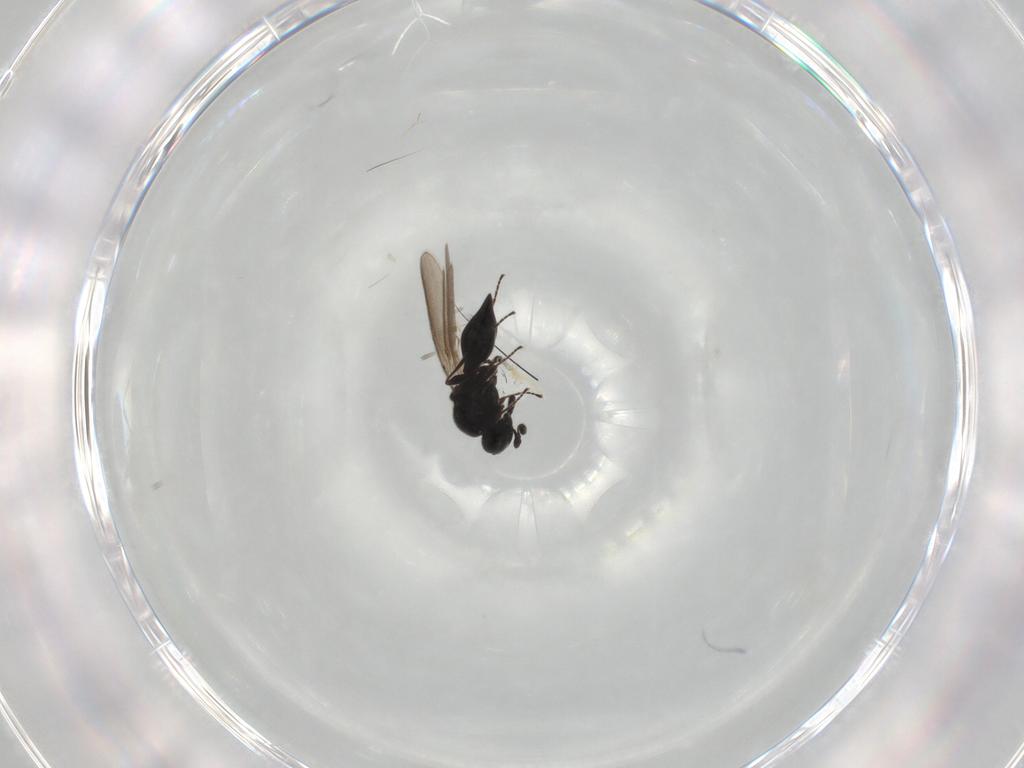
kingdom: Animalia
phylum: Arthropoda
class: Insecta
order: Hymenoptera
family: Platygastridae
